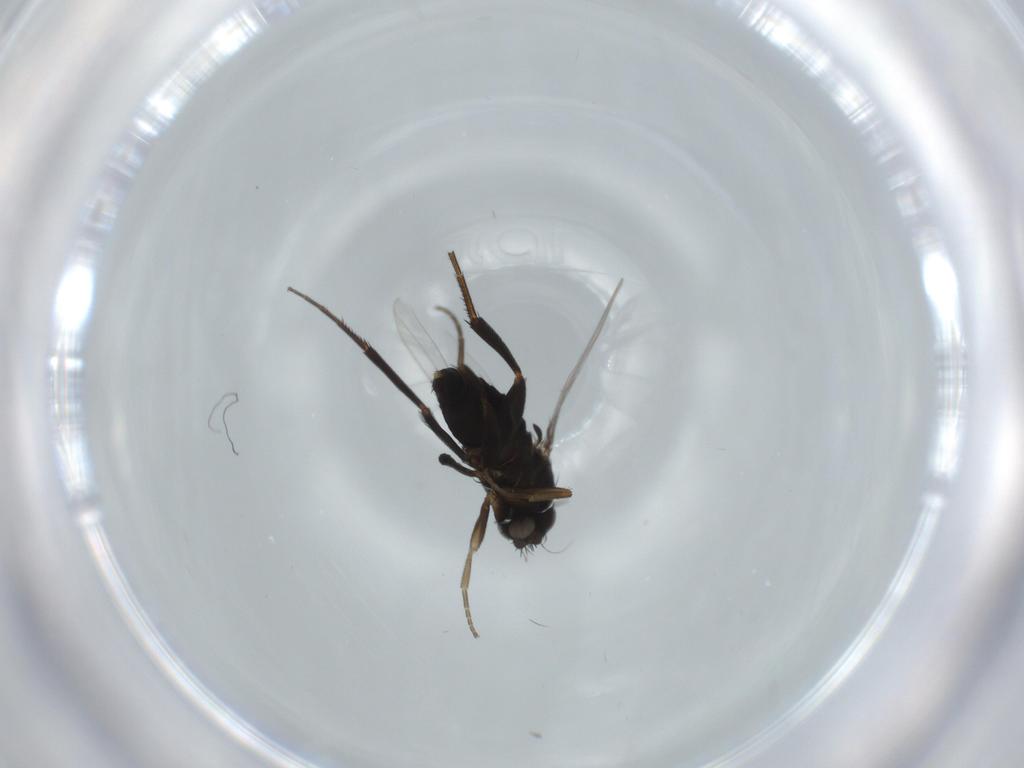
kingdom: Animalia
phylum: Arthropoda
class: Insecta
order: Diptera
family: Phoridae
